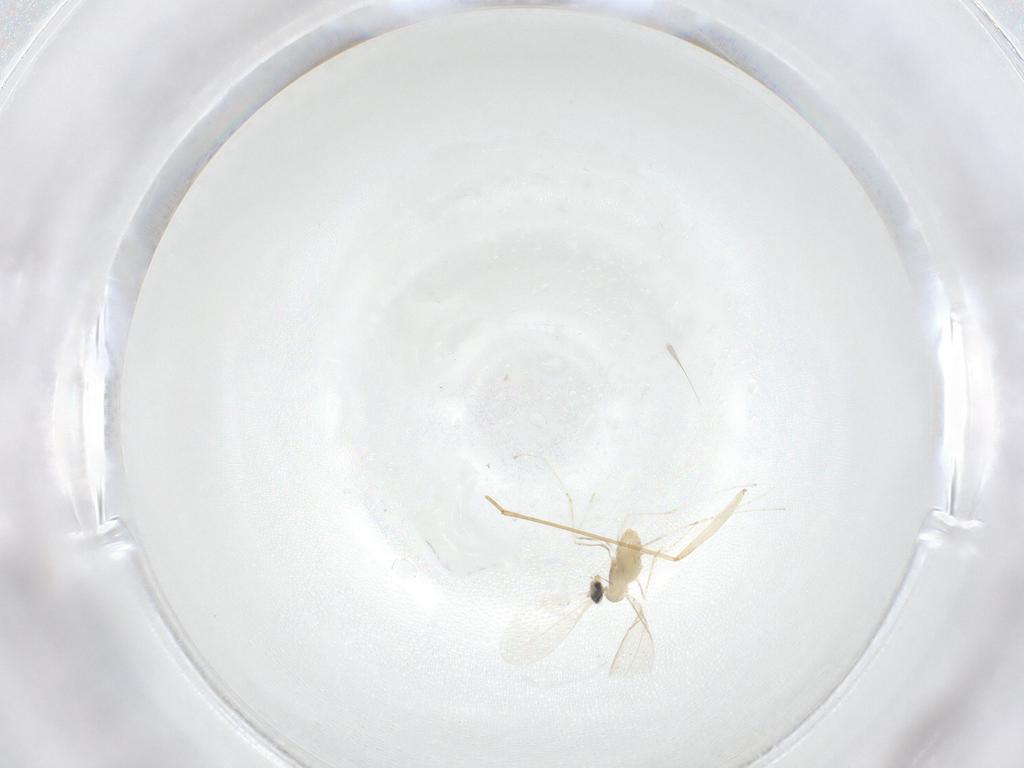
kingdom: Animalia
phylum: Arthropoda
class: Insecta
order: Diptera
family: Cecidomyiidae
